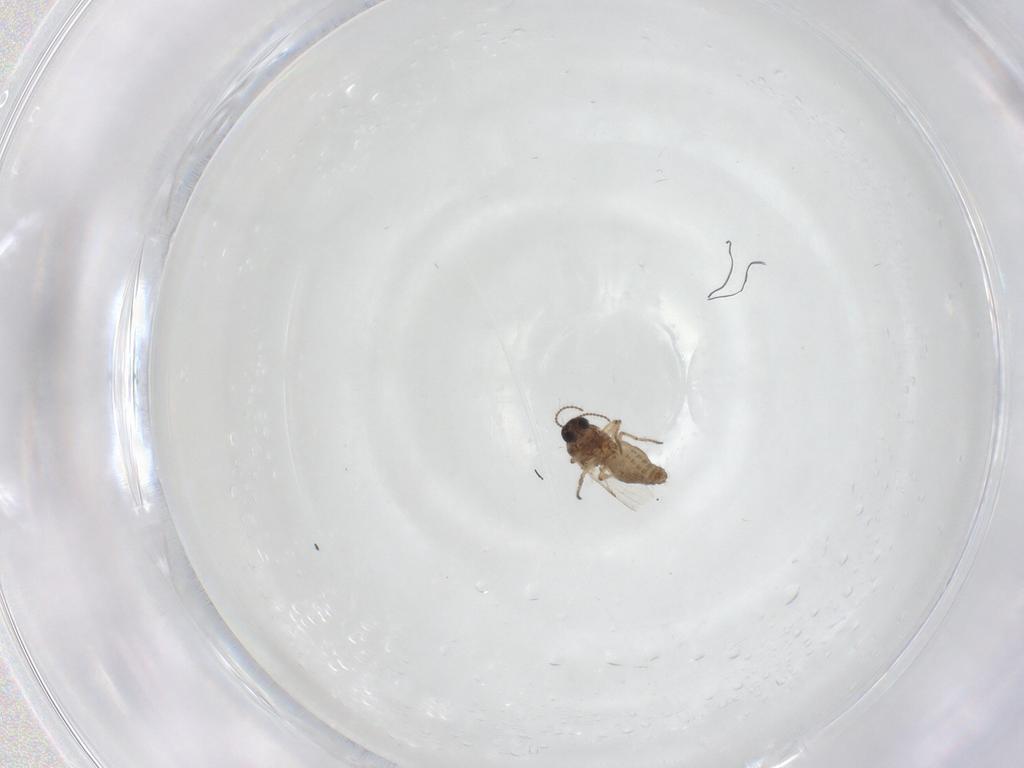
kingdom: Animalia
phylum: Arthropoda
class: Insecta
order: Diptera
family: Ceratopogonidae
